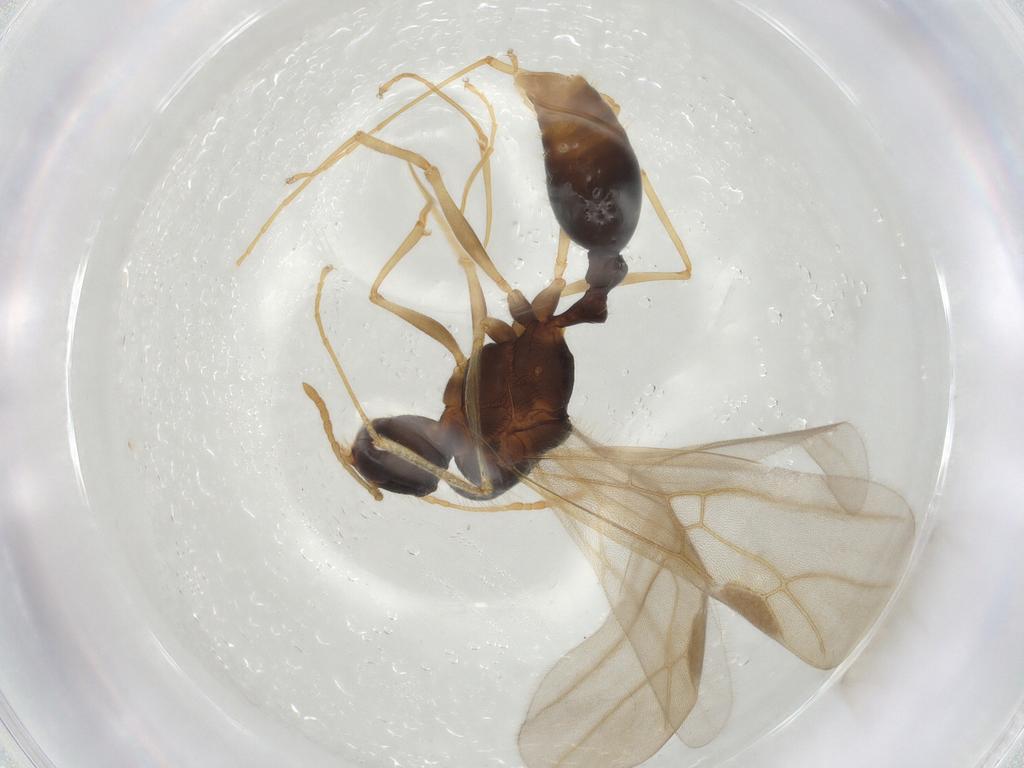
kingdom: Animalia
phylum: Arthropoda
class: Insecta
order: Hymenoptera
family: Formicidae
